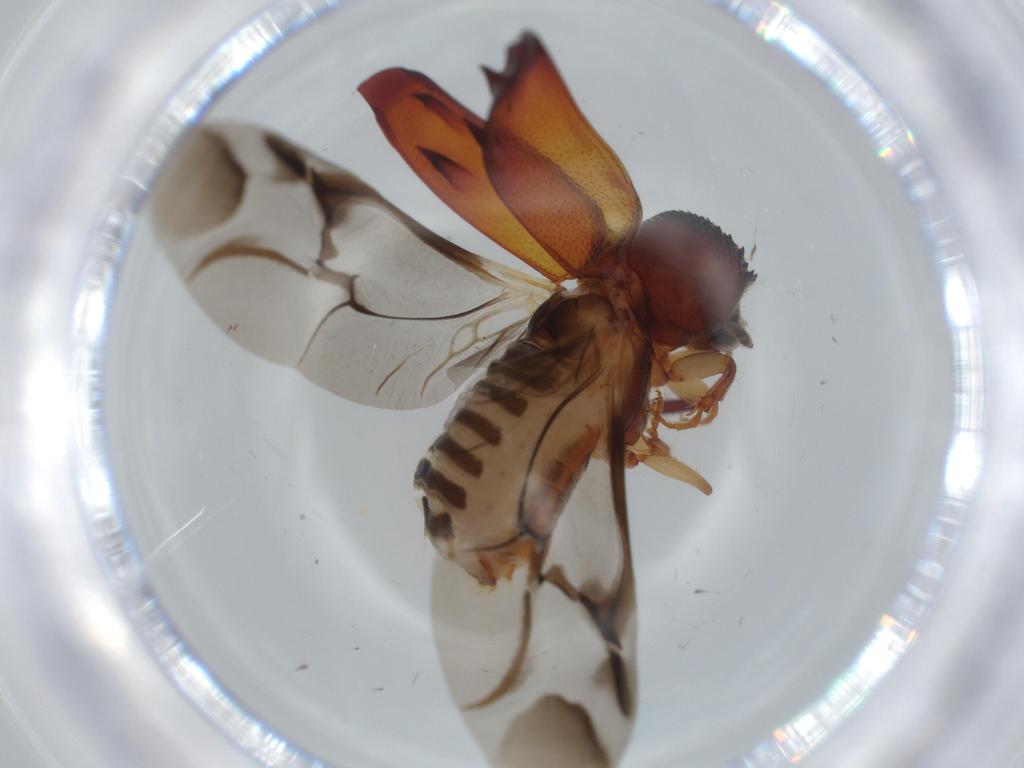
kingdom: Animalia
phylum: Arthropoda
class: Insecta
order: Coleoptera
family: Bostrichidae
